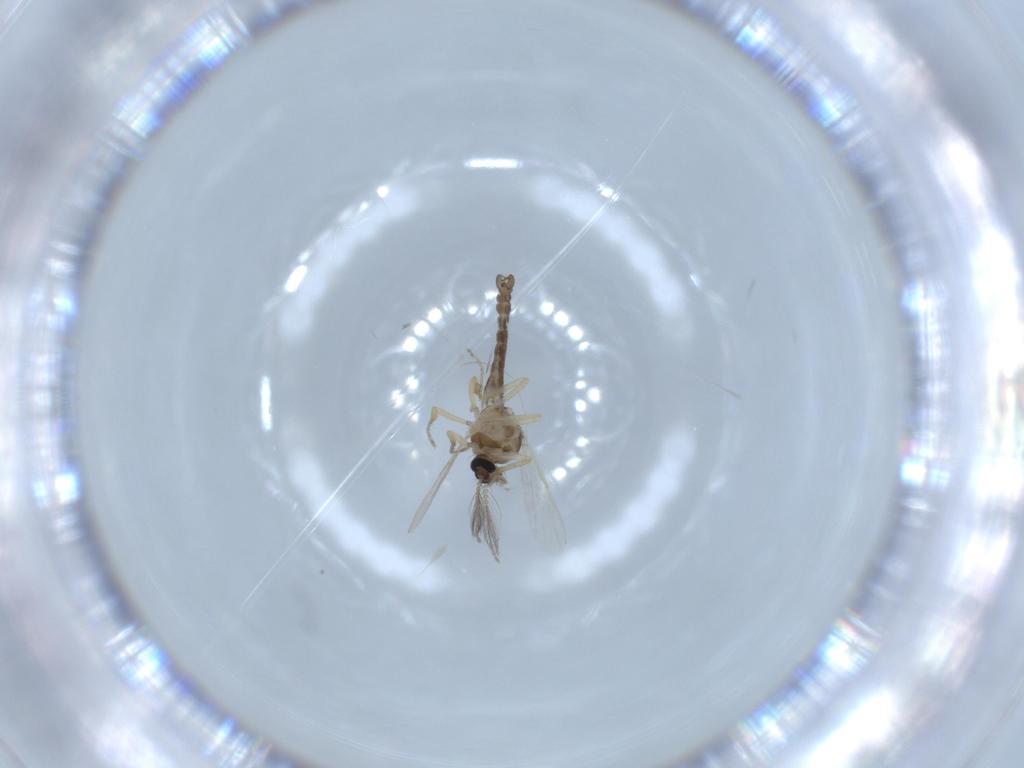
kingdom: Animalia
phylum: Arthropoda
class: Insecta
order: Diptera
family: Ceratopogonidae
